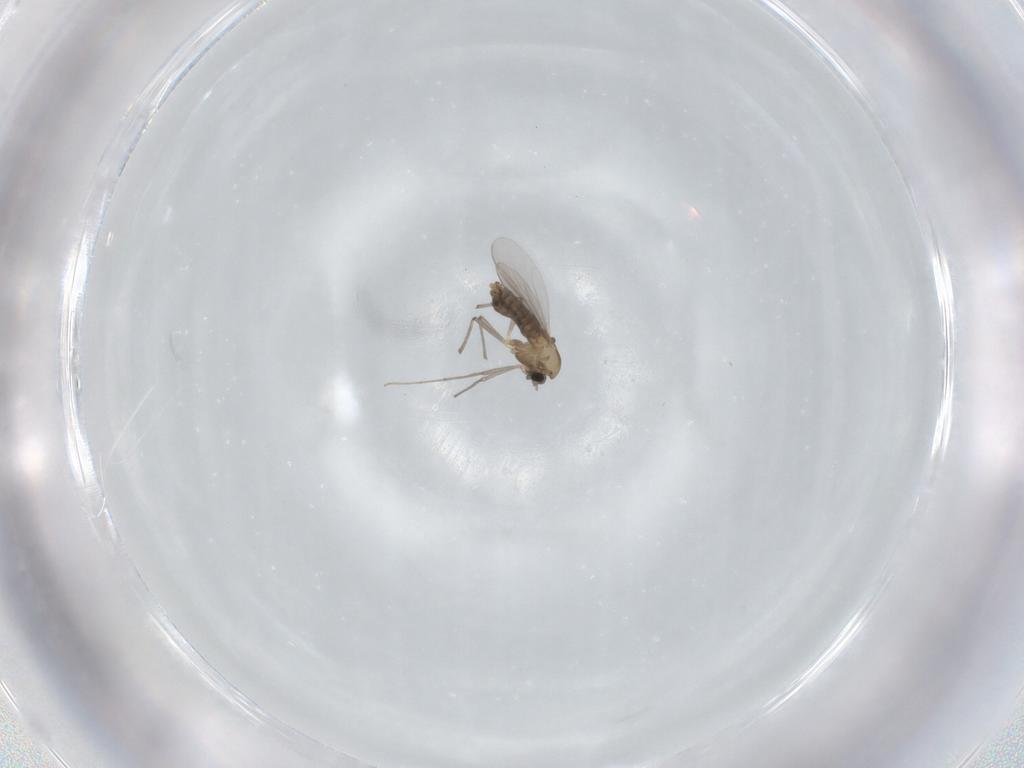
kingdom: Animalia
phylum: Arthropoda
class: Insecta
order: Diptera
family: Chironomidae
